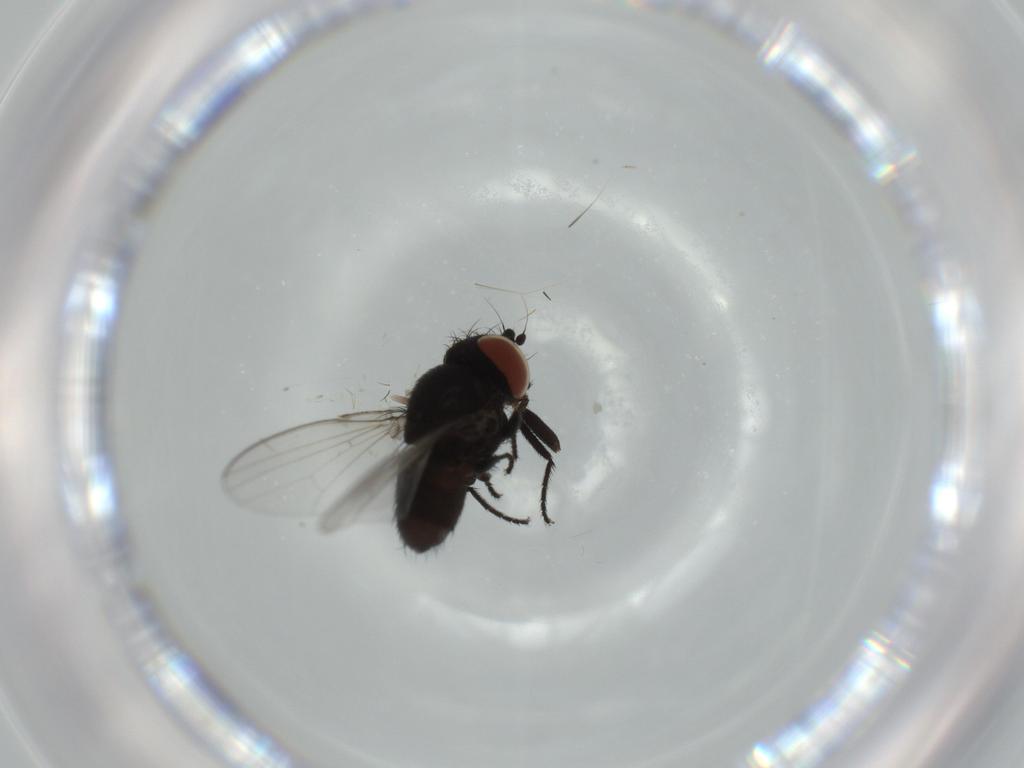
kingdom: Animalia
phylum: Arthropoda
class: Insecta
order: Diptera
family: Milichiidae
